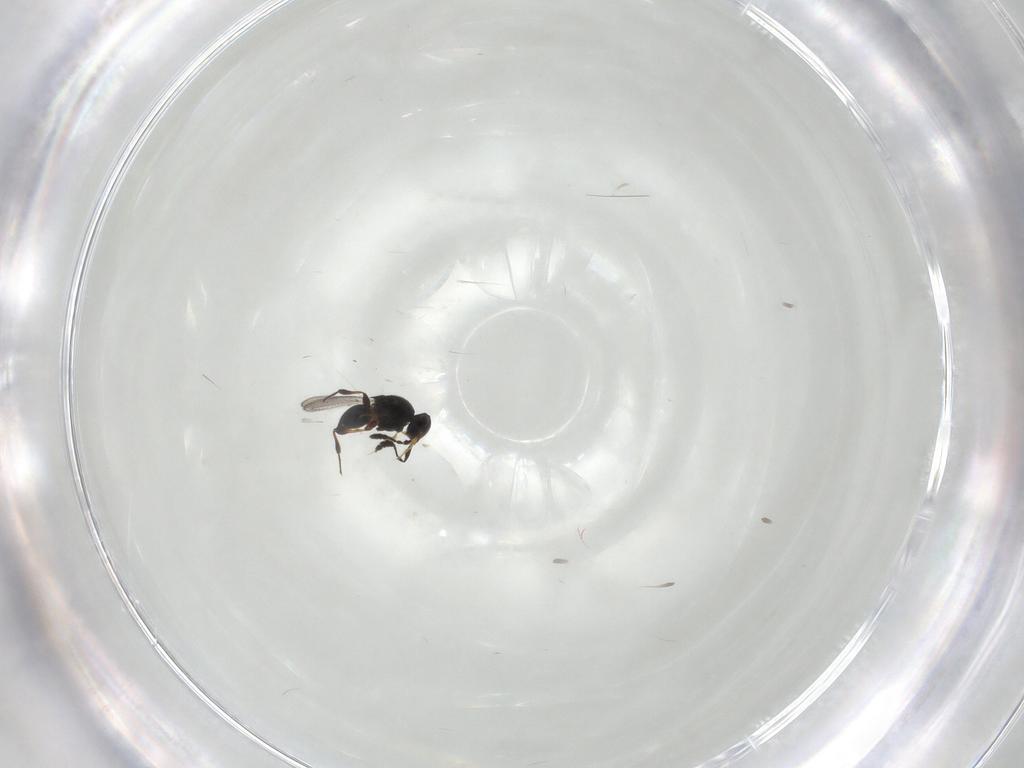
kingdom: Animalia
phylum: Arthropoda
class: Insecta
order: Hymenoptera
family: Platygastridae
